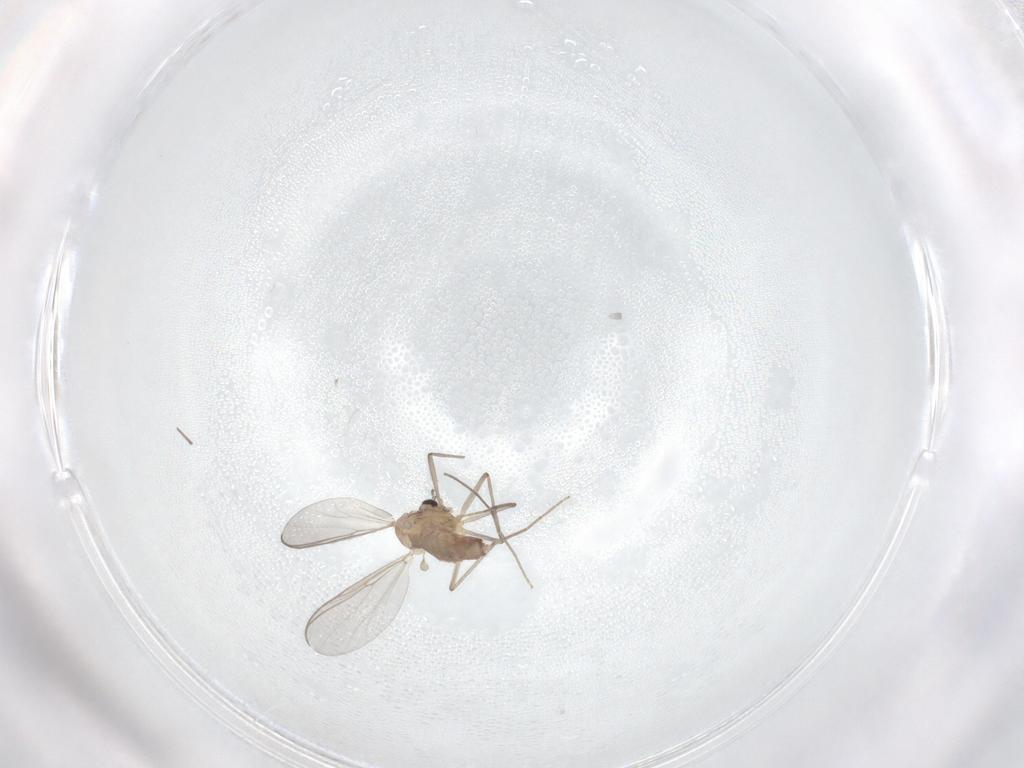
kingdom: Animalia
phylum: Arthropoda
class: Insecta
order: Diptera
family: Chironomidae
